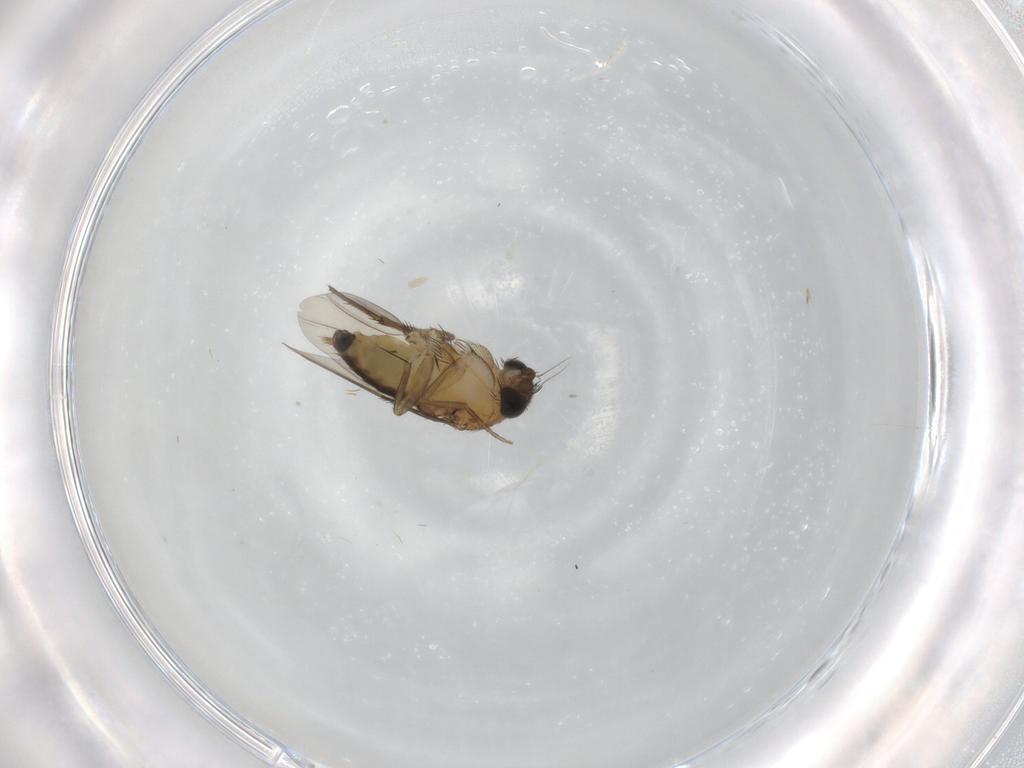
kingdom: Animalia
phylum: Arthropoda
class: Insecta
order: Diptera
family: Phoridae
